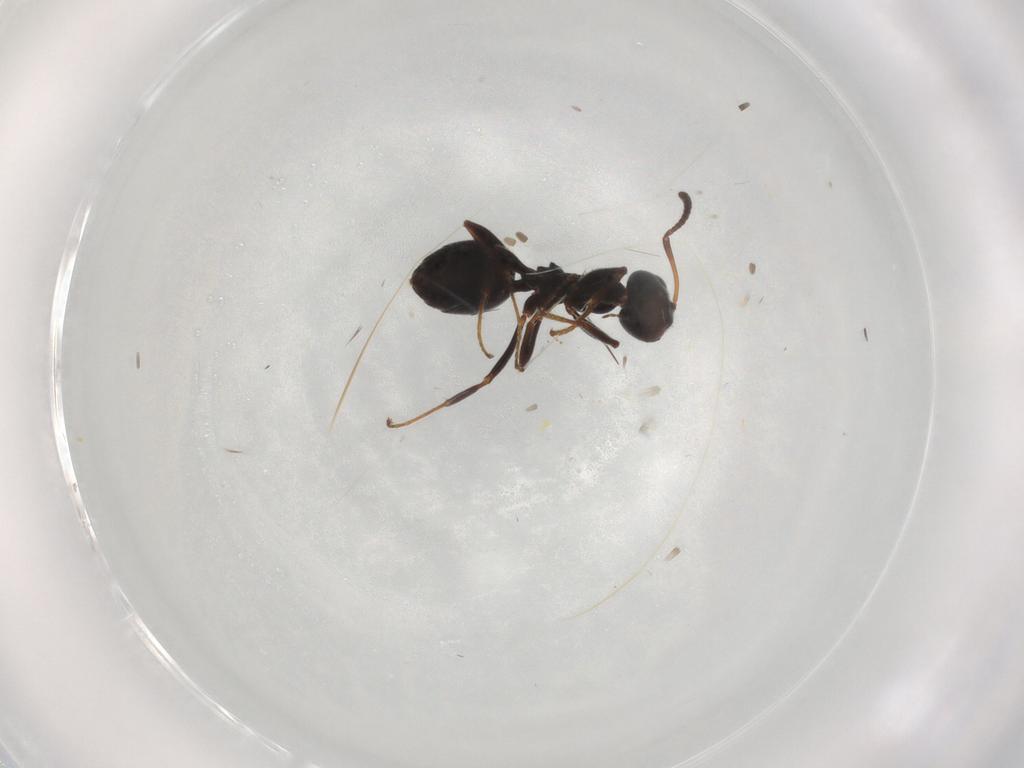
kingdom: Animalia
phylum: Arthropoda
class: Insecta
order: Hymenoptera
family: Formicidae
